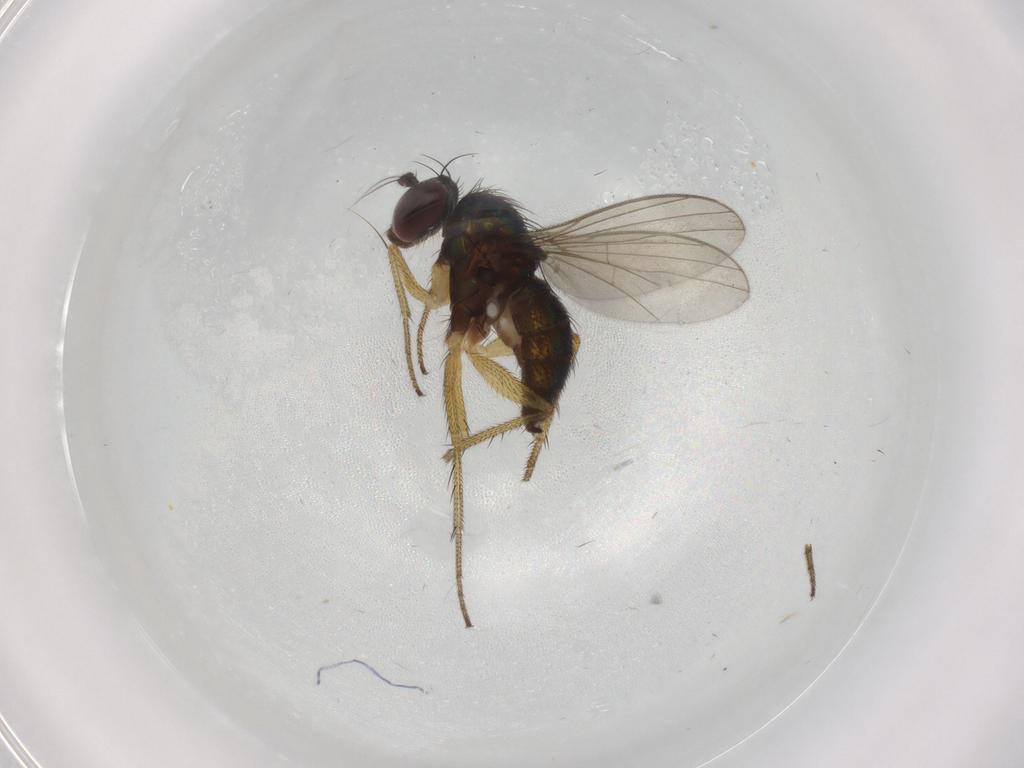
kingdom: Animalia
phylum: Arthropoda
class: Insecta
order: Diptera
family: Dolichopodidae
